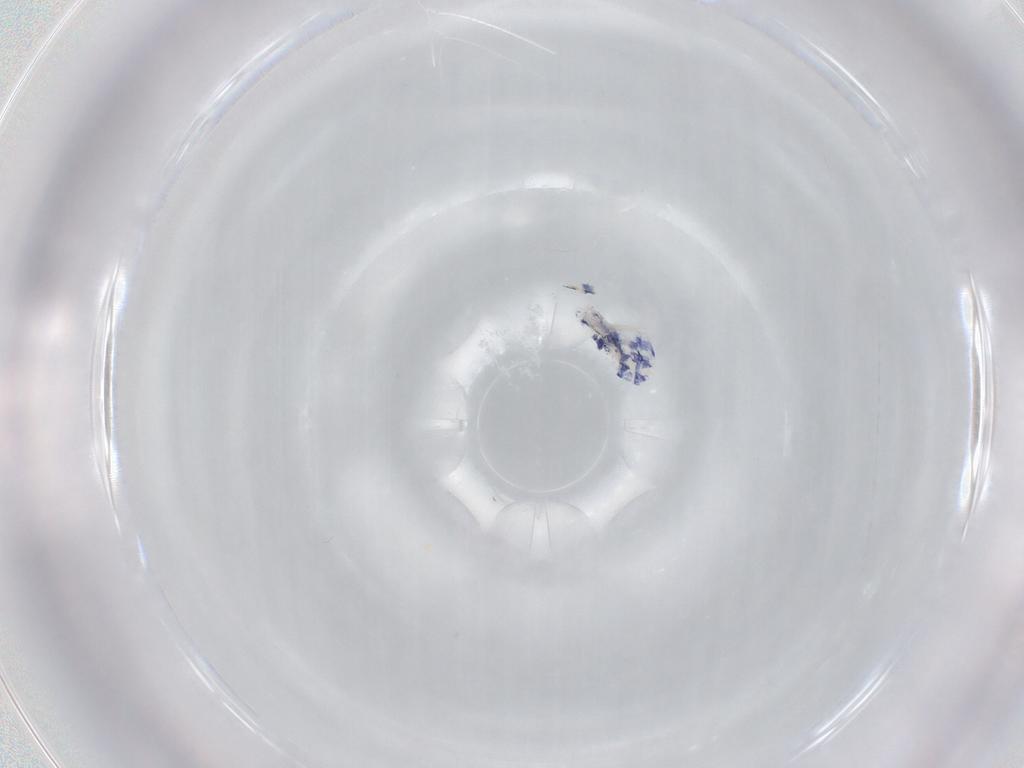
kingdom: Animalia
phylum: Arthropoda
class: Collembola
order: Entomobryomorpha
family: Entomobryidae
